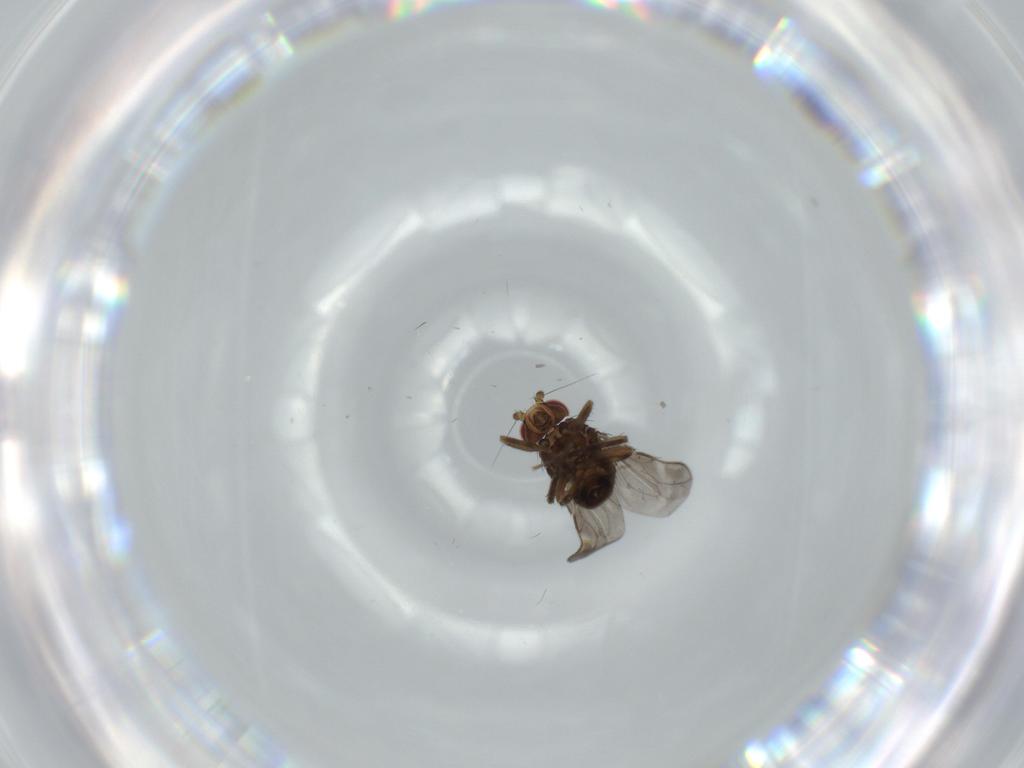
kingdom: Animalia
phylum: Arthropoda
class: Insecta
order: Diptera
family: Sphaeroceridae
